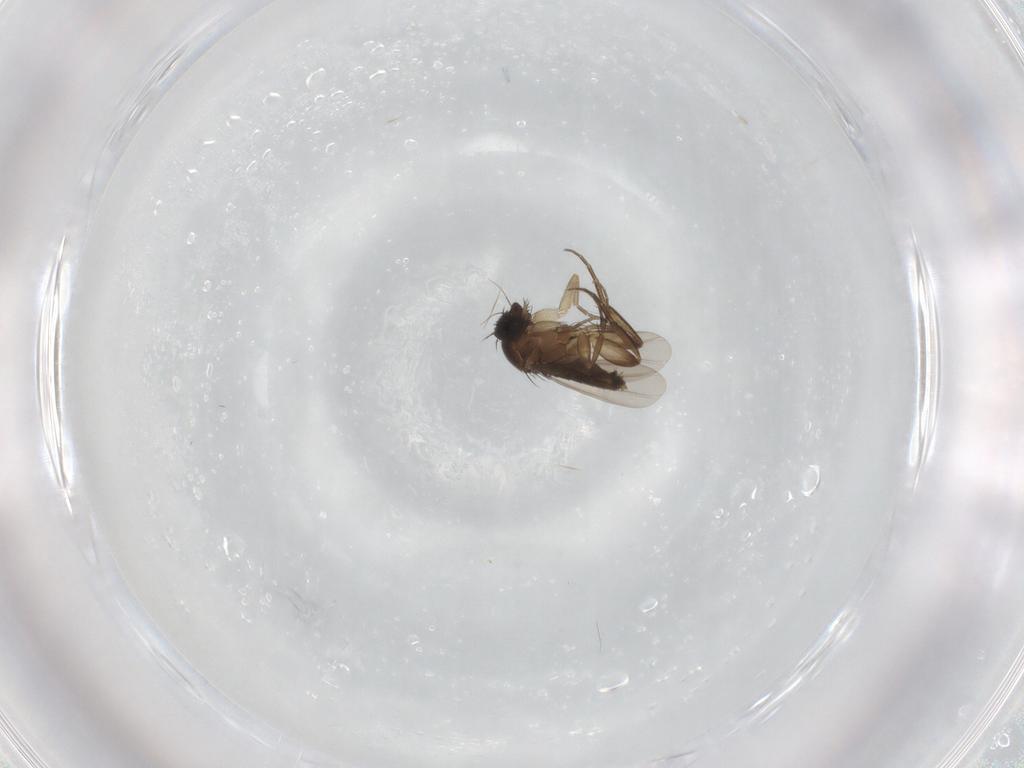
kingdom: Animalia
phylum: Arthropoda
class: Insecta
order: Diptera
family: Phoridae
